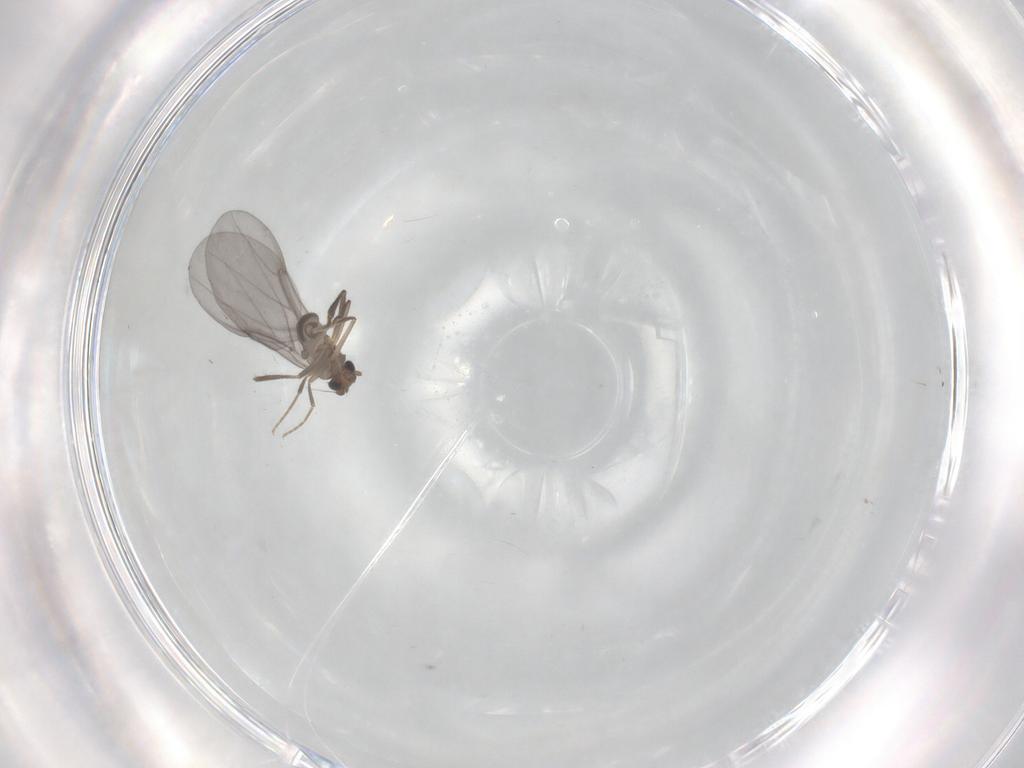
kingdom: Animalia
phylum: Arthropoda
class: Insecta
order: Diptera
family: Phoridae
